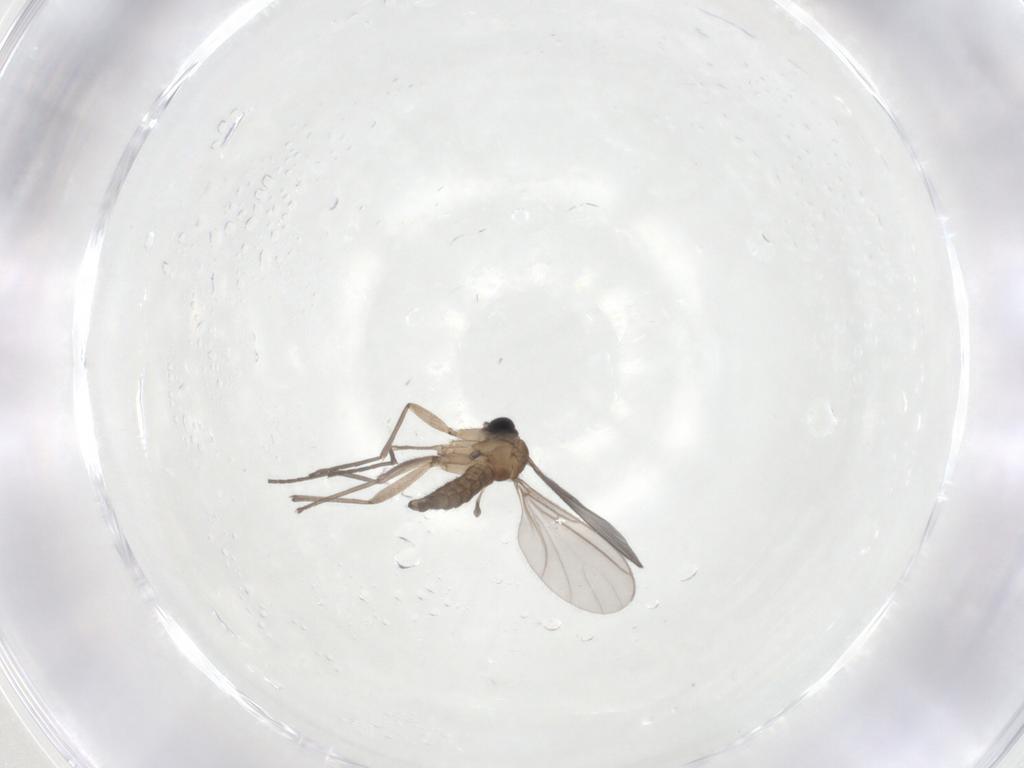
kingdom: Animalia
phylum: Arthropoda
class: Insecta
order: Diptera
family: Sciaridae
